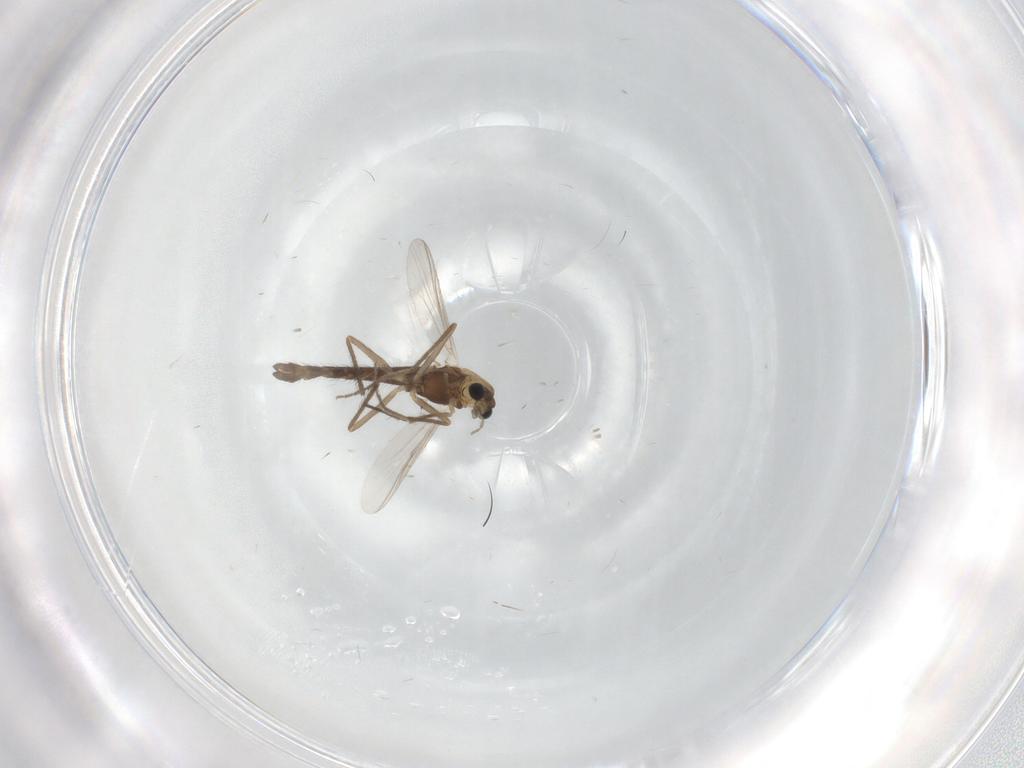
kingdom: Animalia
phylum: Arthropoda
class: Insecta
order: Diptera
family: Chironomidae
